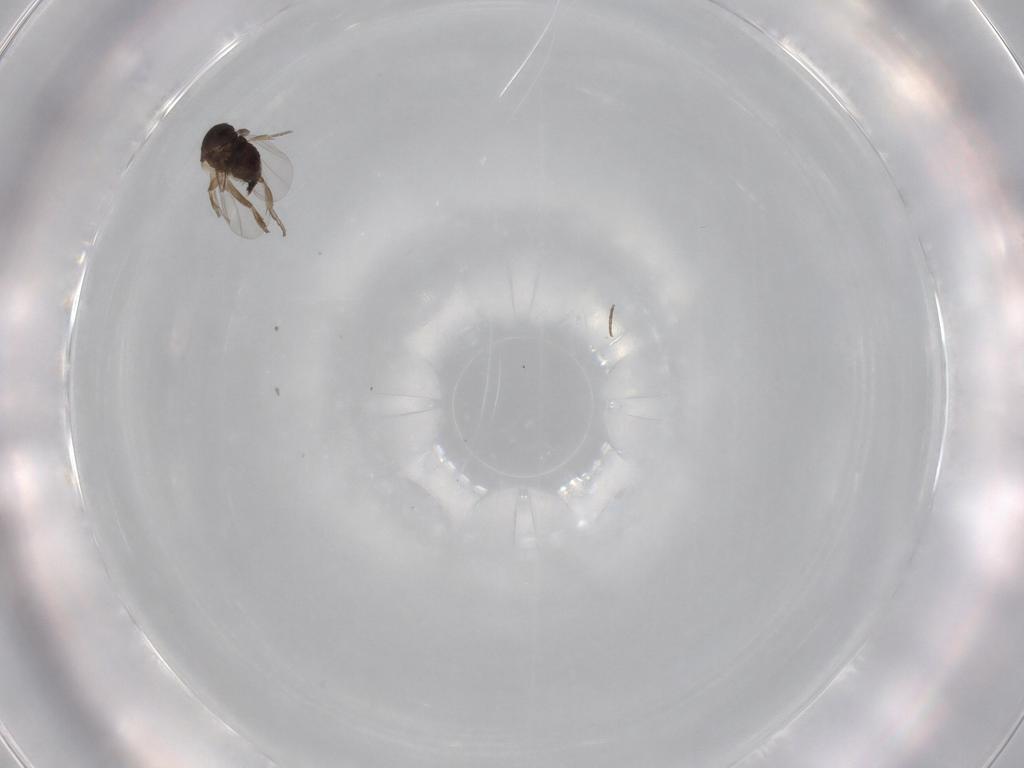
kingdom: Animalia
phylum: Arthropoda
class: Insecta
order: Diptera
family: Phoridae
